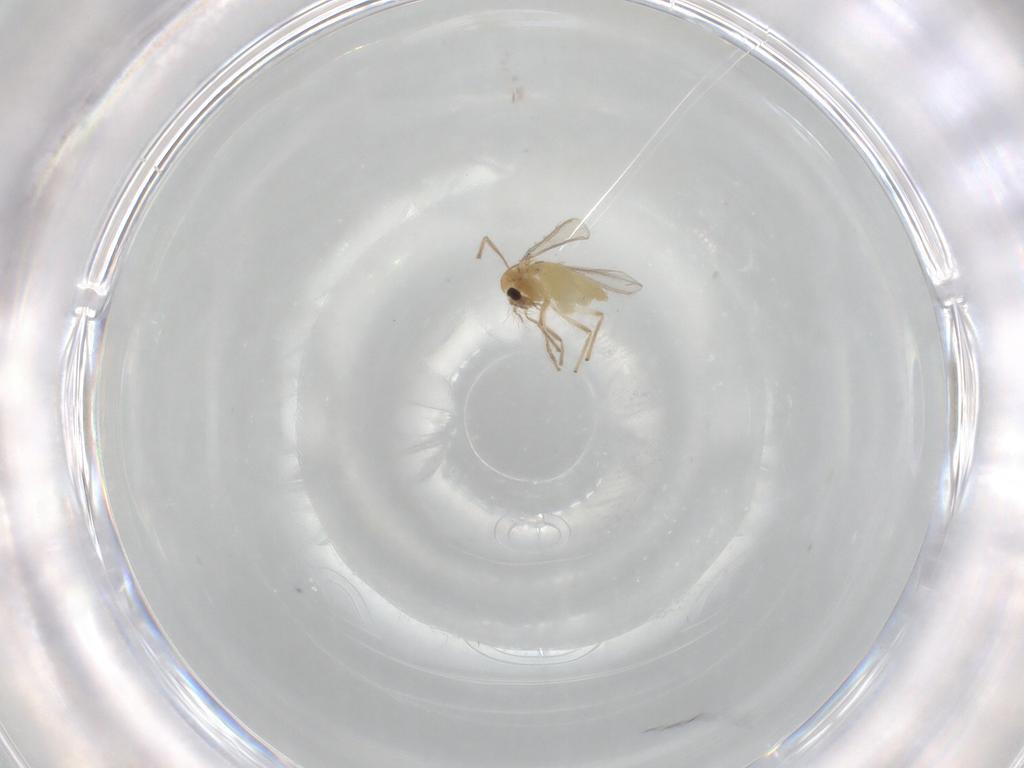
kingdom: Animalia
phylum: Arthropoda
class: Insecta
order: Diptera
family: Chironomidae
